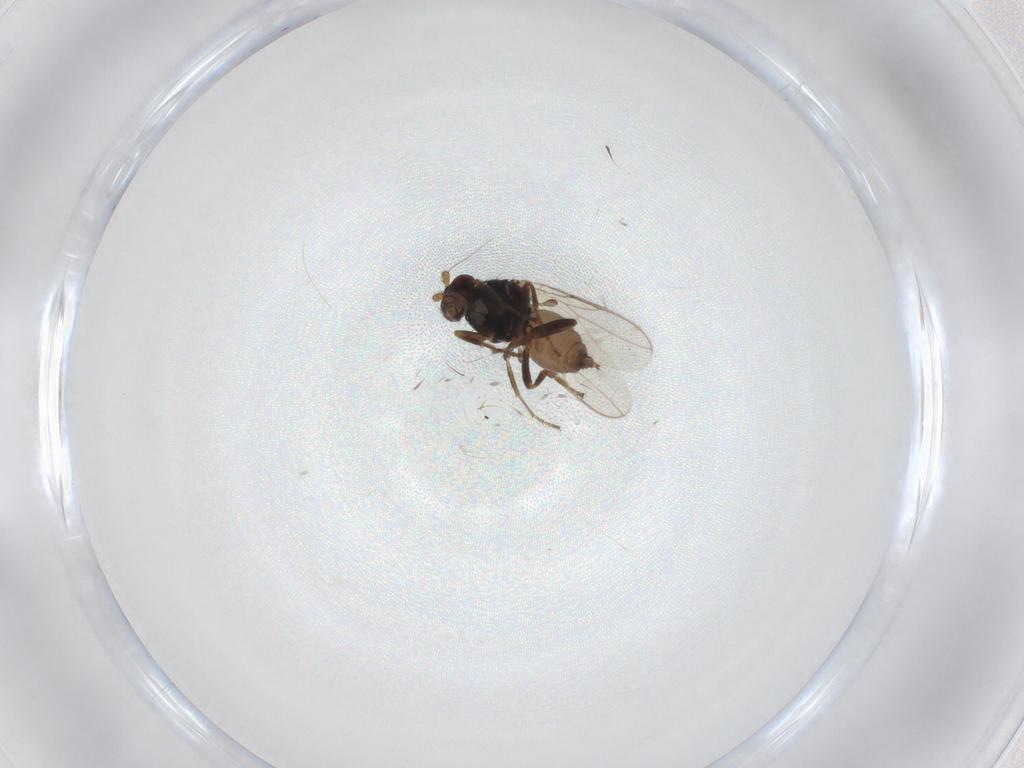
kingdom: Animalia
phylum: Arthropoda
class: Insecta
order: Diptera
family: Sphaeroceridae
